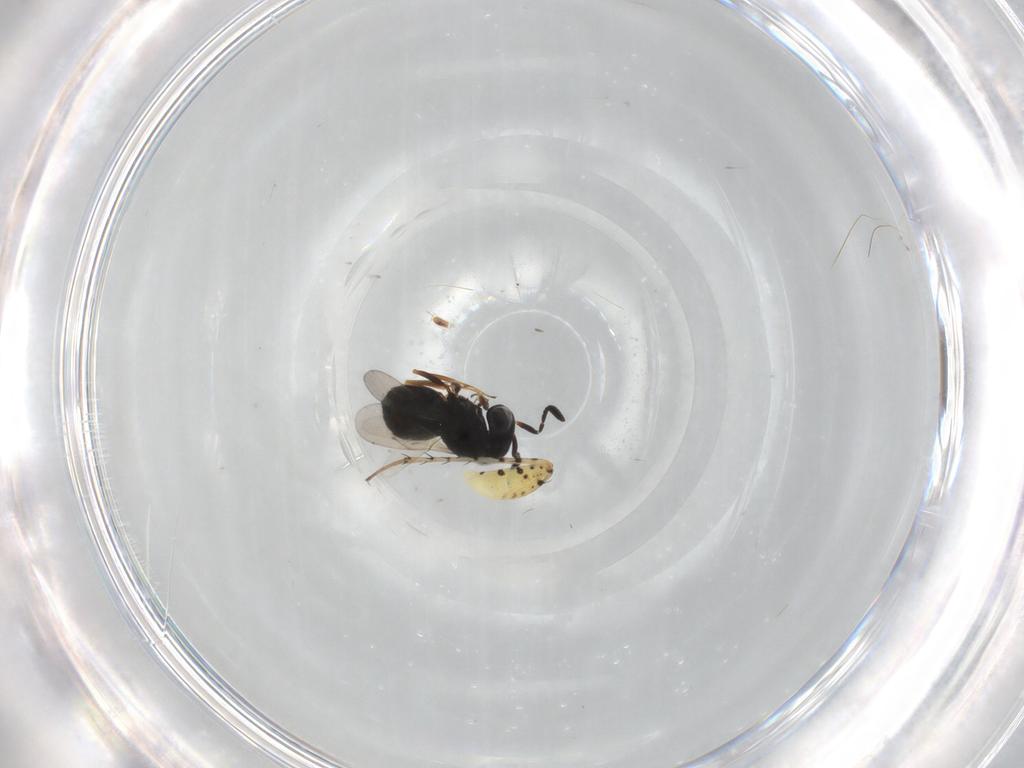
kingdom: Animalia
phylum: Arthropoda
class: Insecta
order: Hymenoptera
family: Scelionidae
